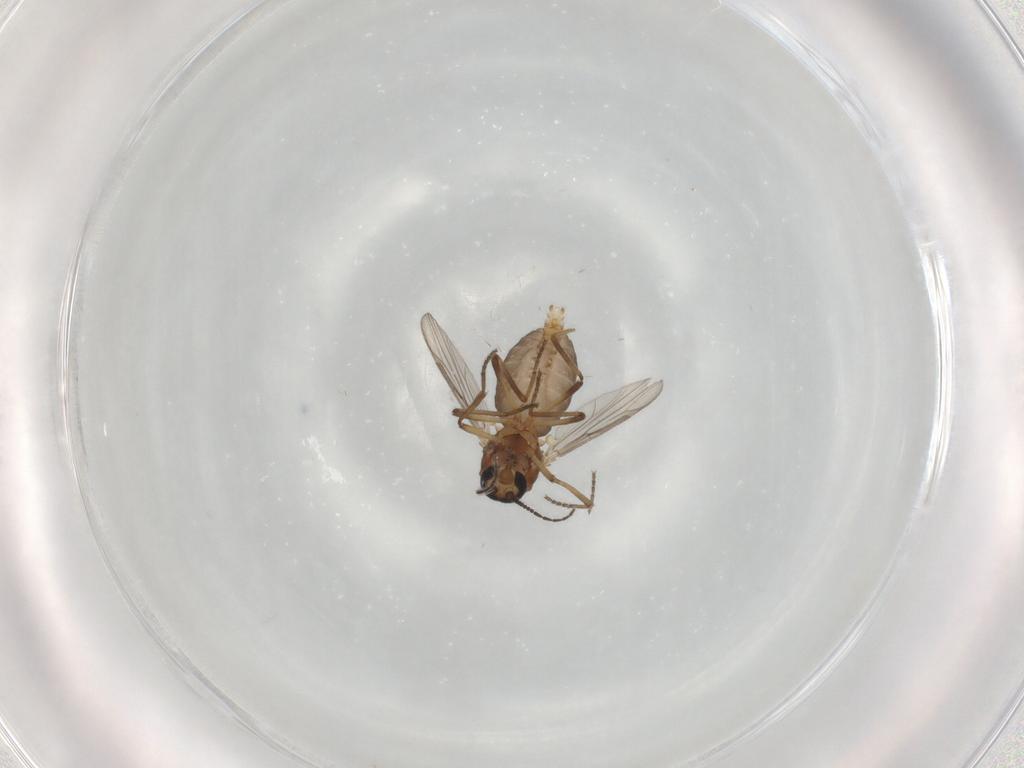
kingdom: Animalia
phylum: Arthropoda
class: Insecta
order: Diptera
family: Ceratopogonidae
